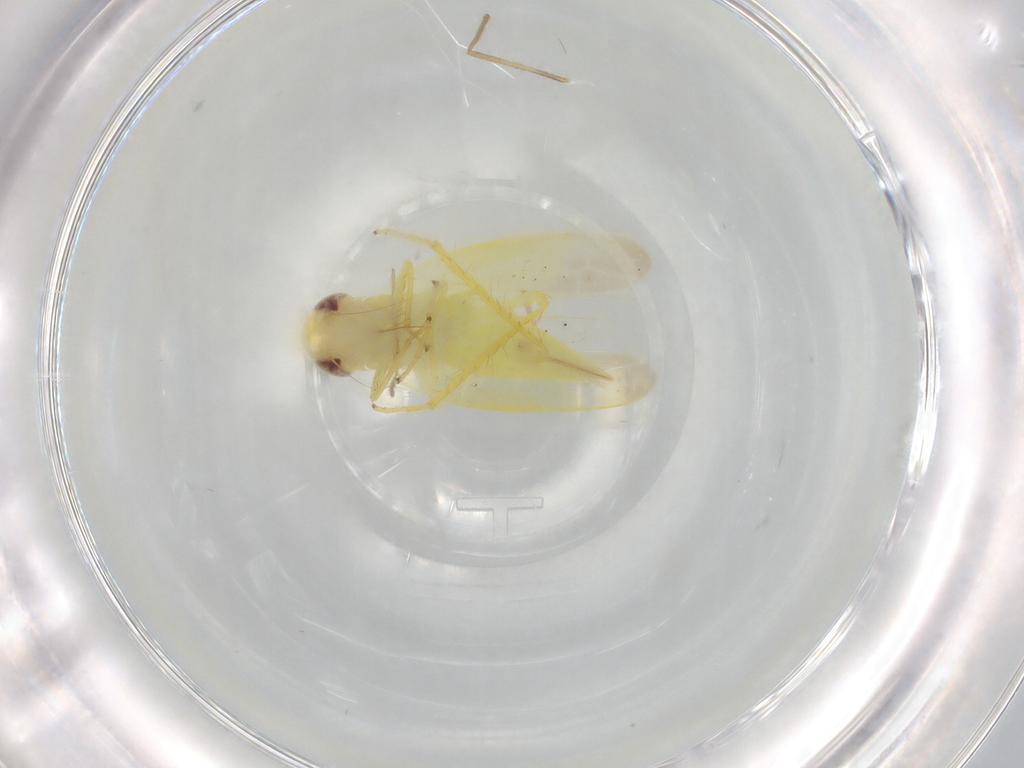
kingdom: Animalia
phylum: Arthropoda
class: Insecta
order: Hemiptera
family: Cicadellidae
